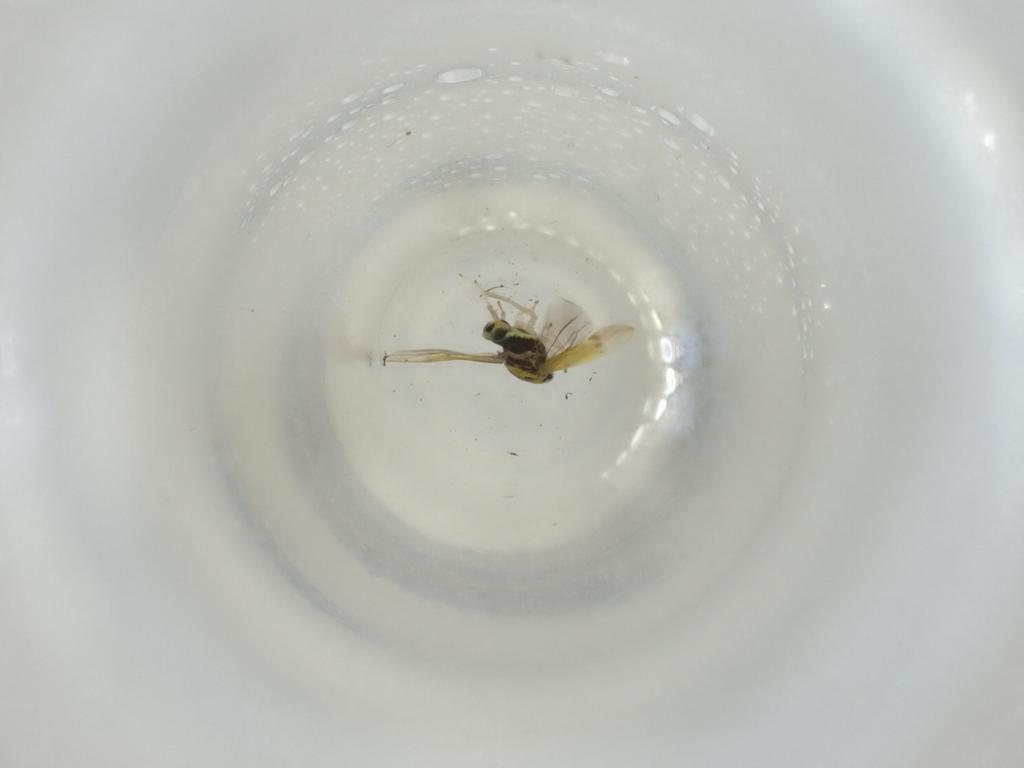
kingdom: Animalia
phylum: Arthropoda
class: Insecta
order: Hemiptera
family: Cicadellidae
